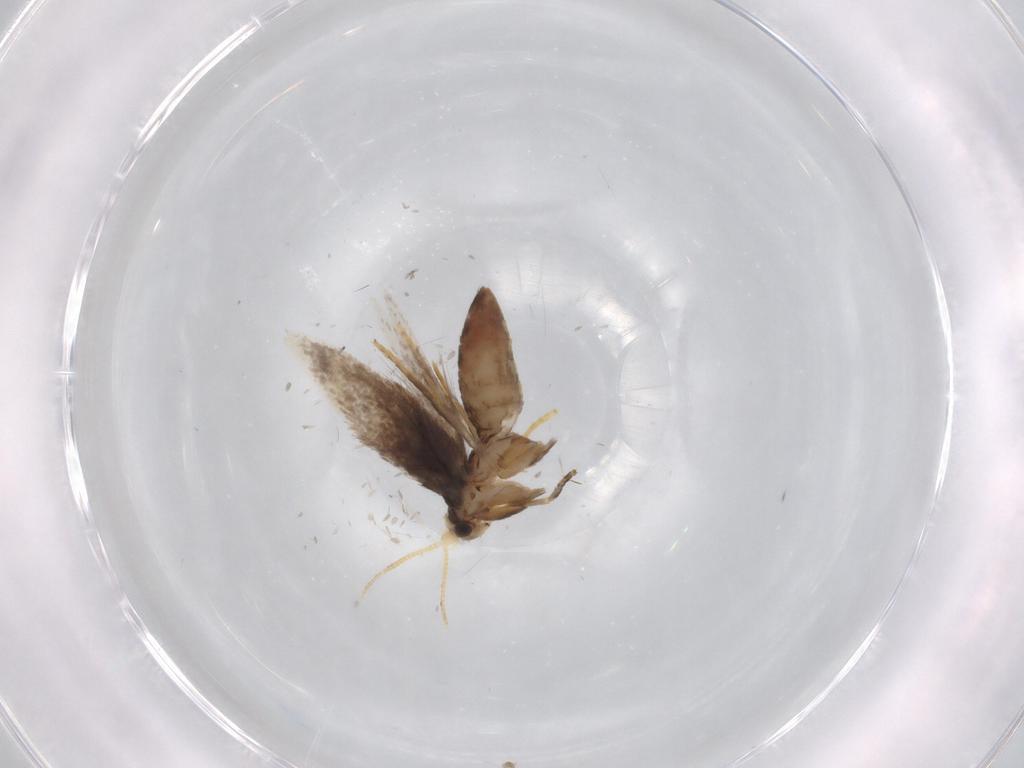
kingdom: Animalia
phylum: Arthropoda
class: Insecta
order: Lepidoptera
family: Nepticulidae
